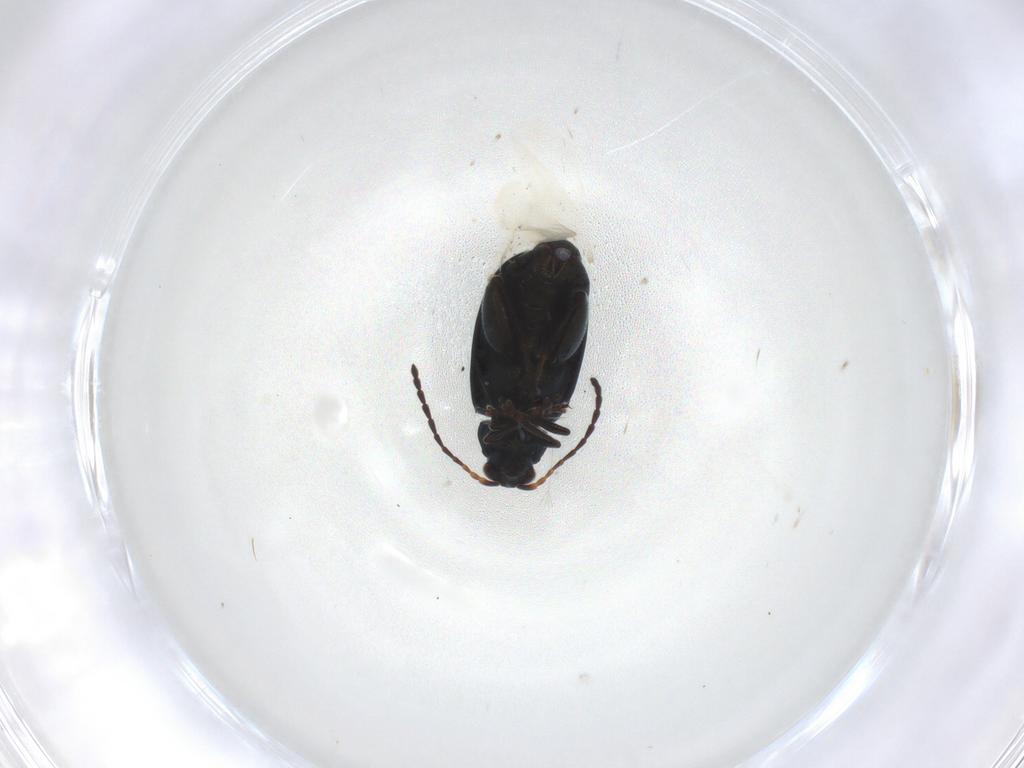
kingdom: Animalia
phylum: Arthropoda
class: Insecta
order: Coleoptera
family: Chrysomelidae
